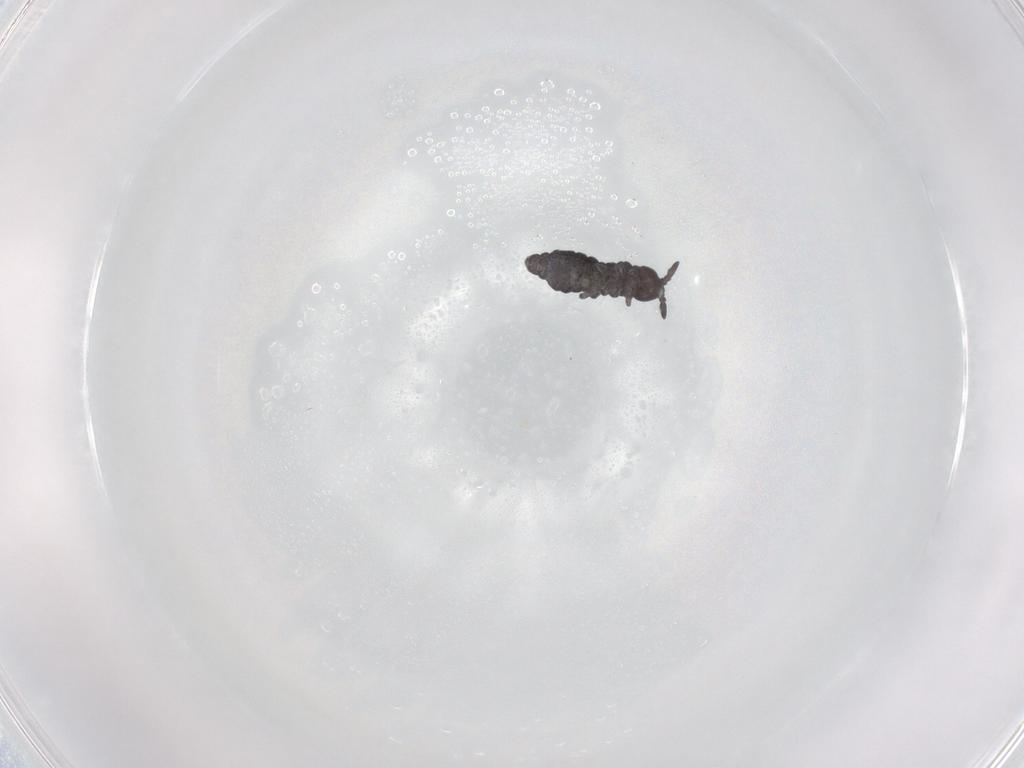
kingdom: Animalia
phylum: Arthropoda
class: Collembola
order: Poduromorpha
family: Hypogastruridae
